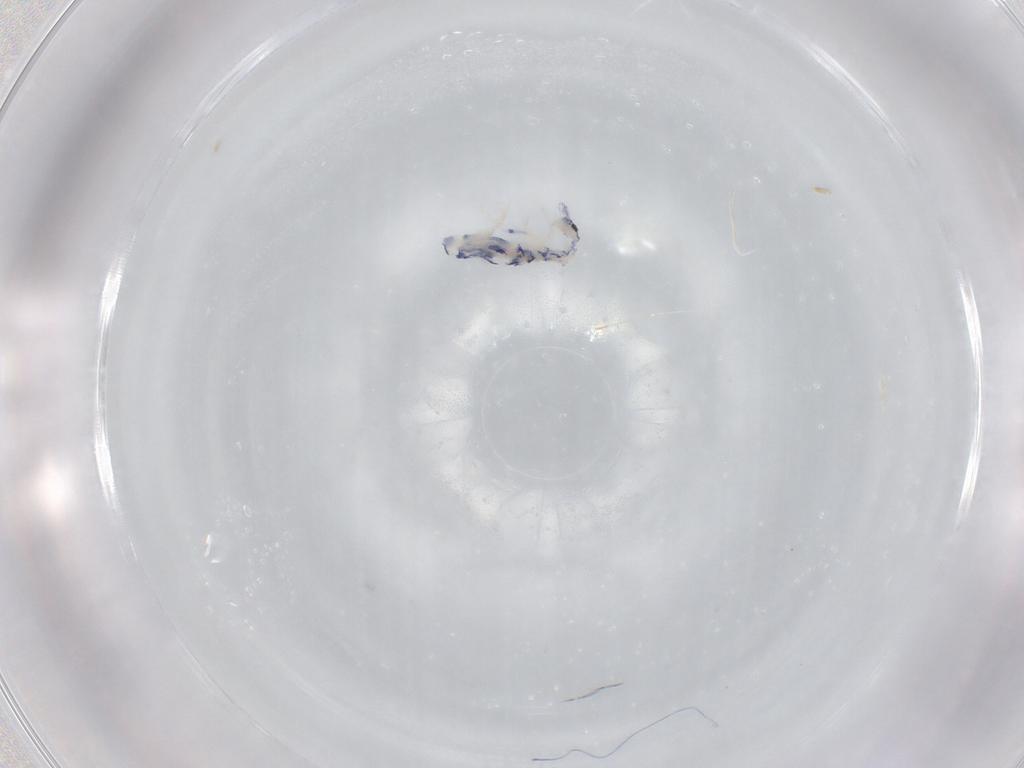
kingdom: Animalia
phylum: Arthropoda
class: Collembola
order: Entomobryomorpha
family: Entomobryidae
